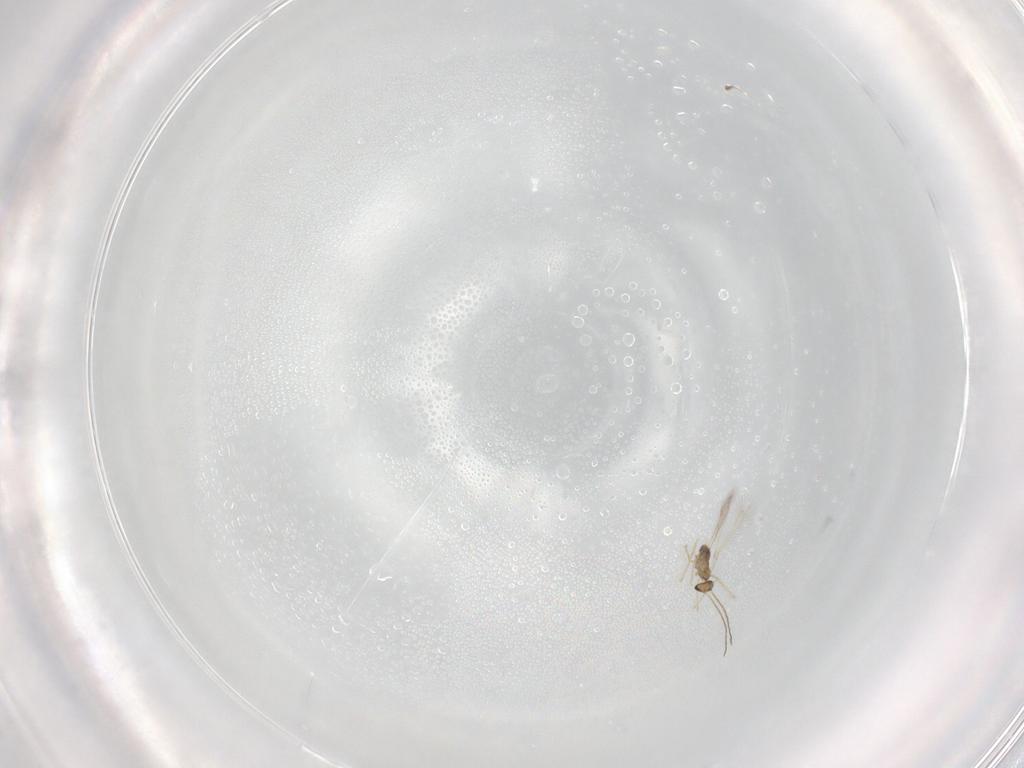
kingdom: Animalia
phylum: Arthropoda
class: Insecta
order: Hymenoptera
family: Mymaridae
